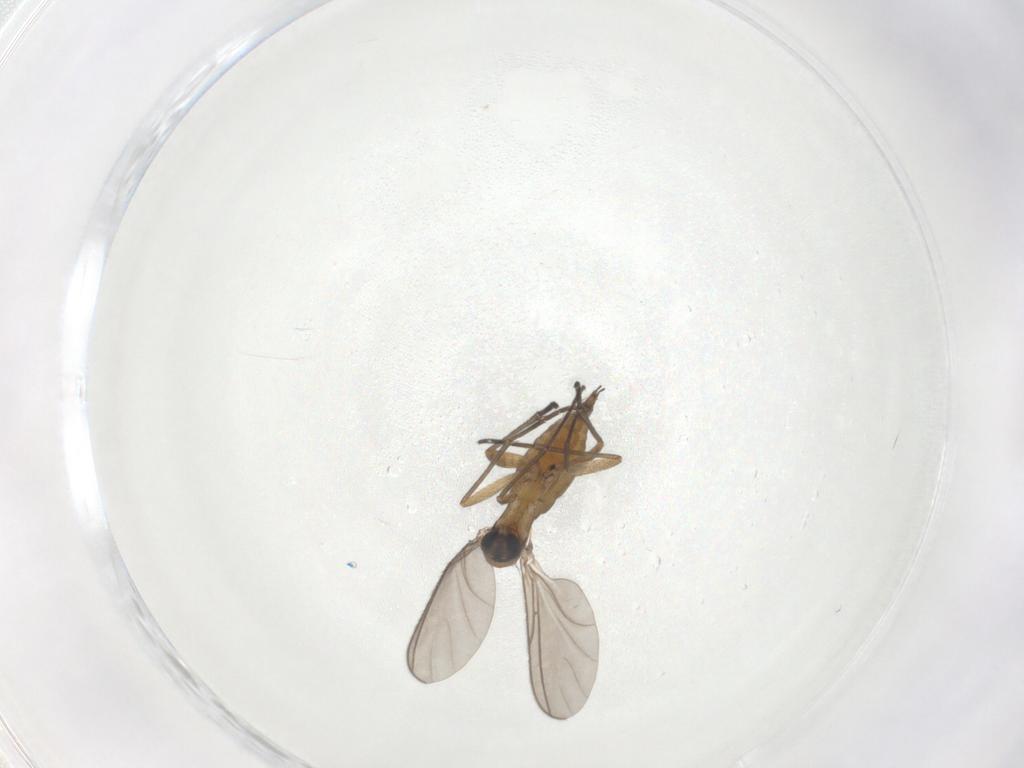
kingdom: Animalia
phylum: Arthropoda
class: Insecta
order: Diptera
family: Sciaridae
